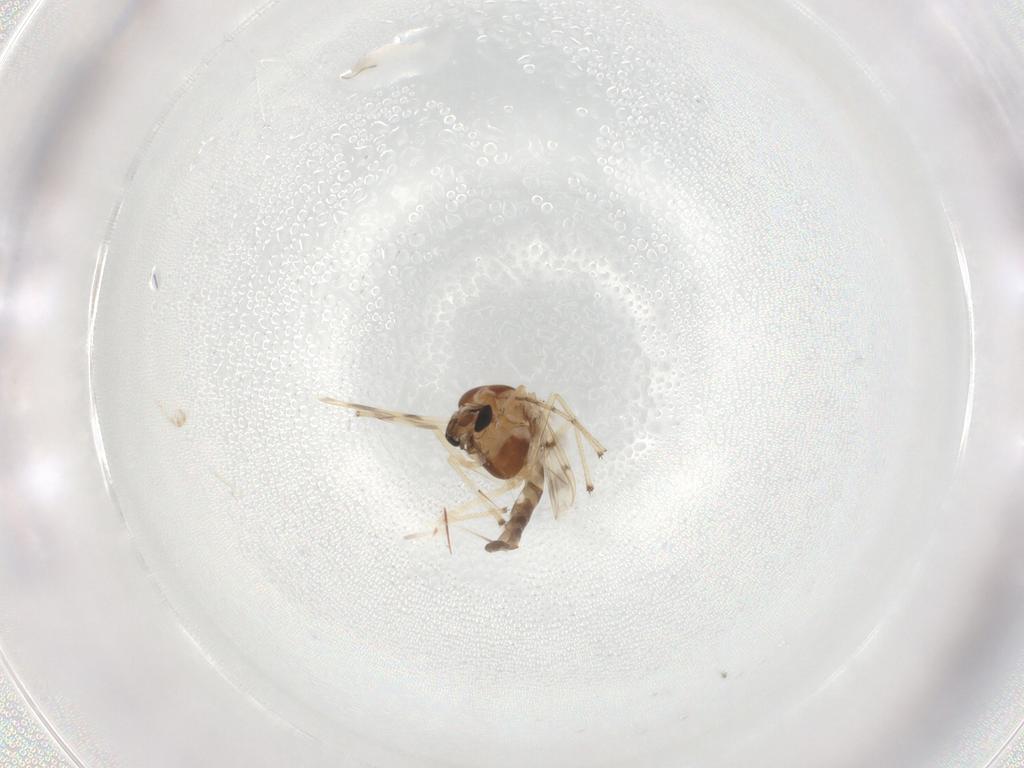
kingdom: Animalia
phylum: Arthropoda
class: Insecta
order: Diptera
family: Chironomidae
